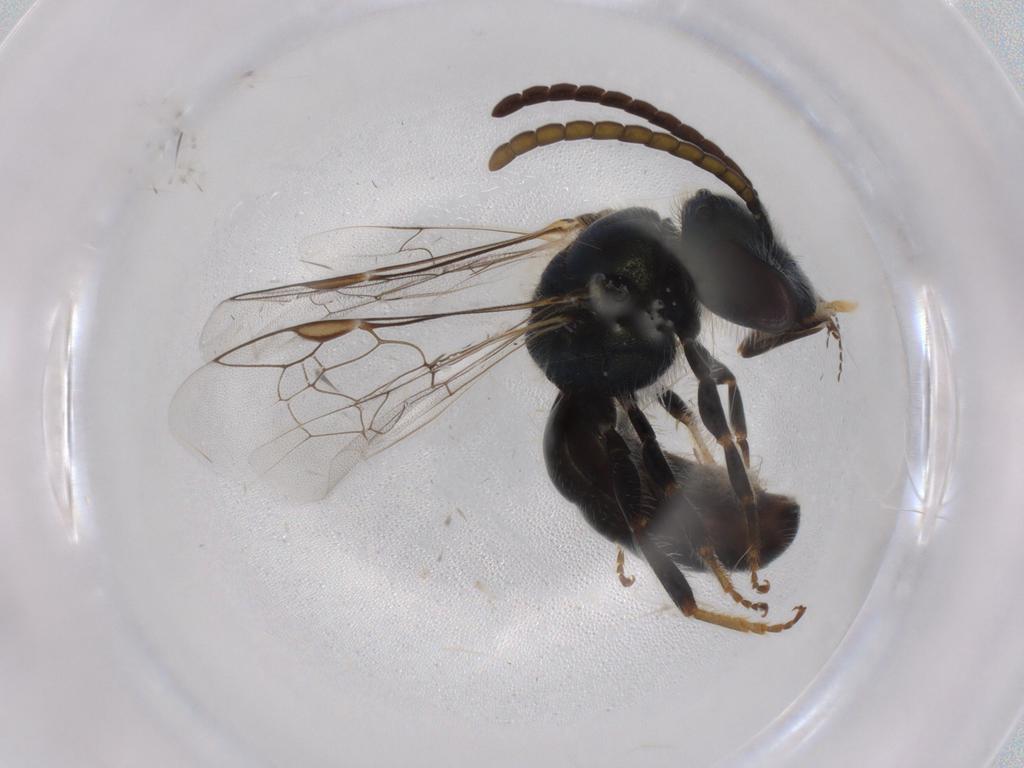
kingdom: Animalia
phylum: Arthropoda
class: Insecta
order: Hymenoptera
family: Halictidae
